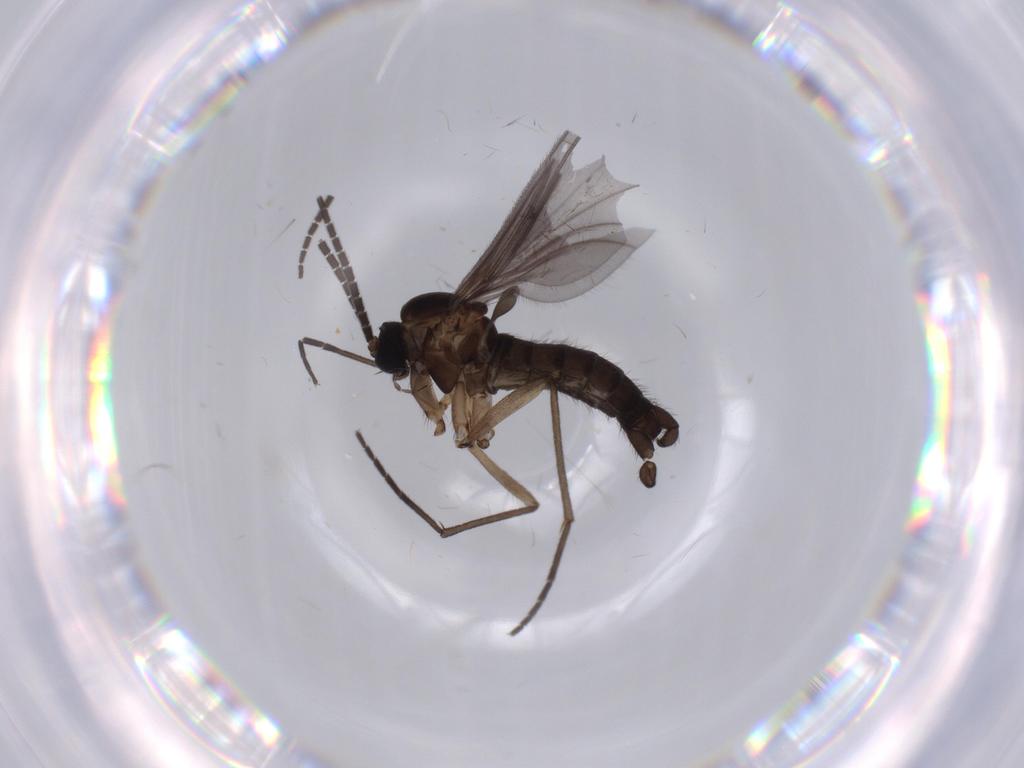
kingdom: Animalia
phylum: Arthropoda
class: Insecta
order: Diptera
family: Sciaridae
